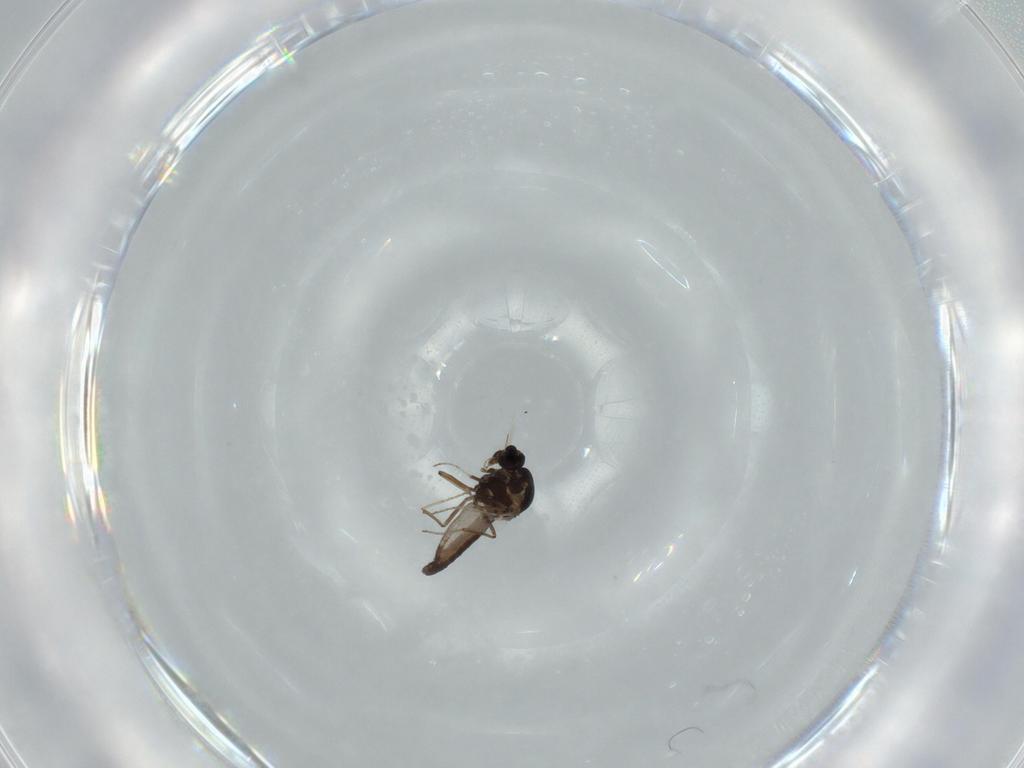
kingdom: Animalia
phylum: Arthropoda
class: Insecta
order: Diptera
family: Ceratopogonidae
